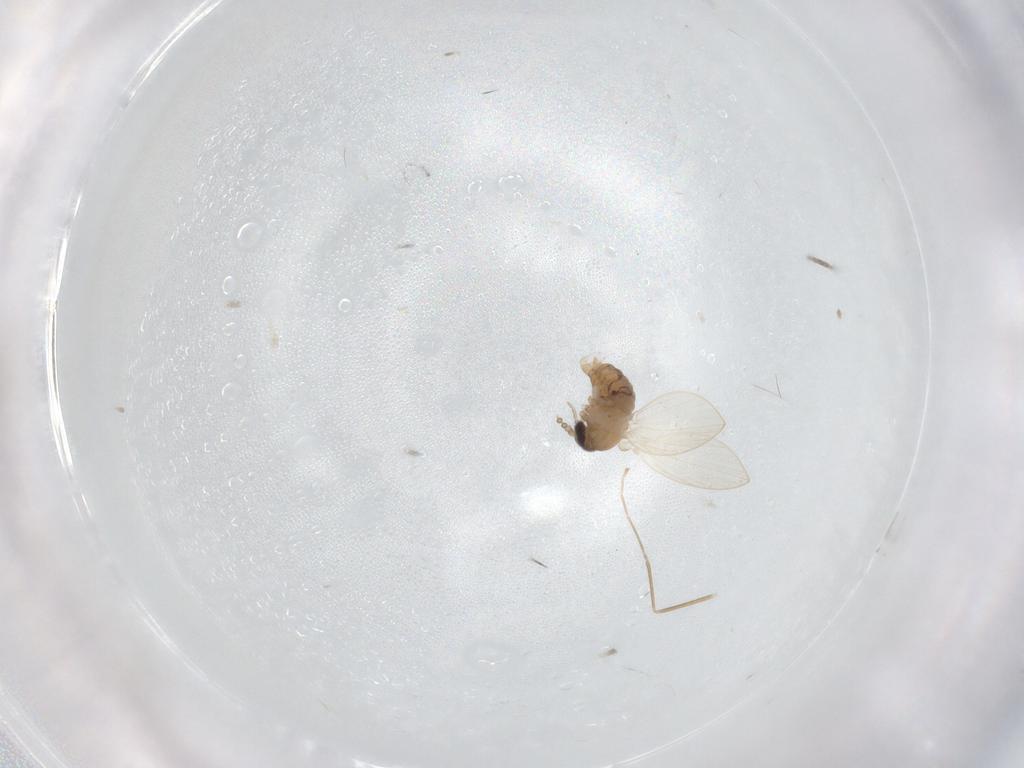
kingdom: Animalia
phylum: Arthropoda
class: Insecta
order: Diptera
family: Psychodidae
